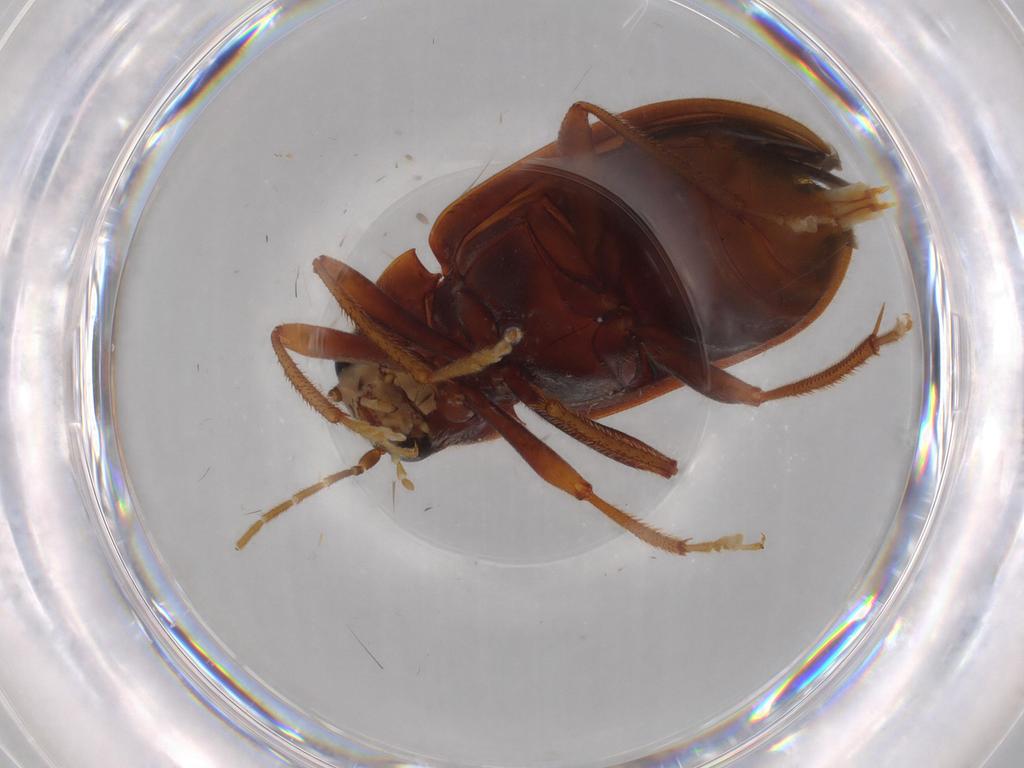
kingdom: Animalia
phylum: Arthropoda
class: Insecta
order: Coleoptera
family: Ptilodactylidae
